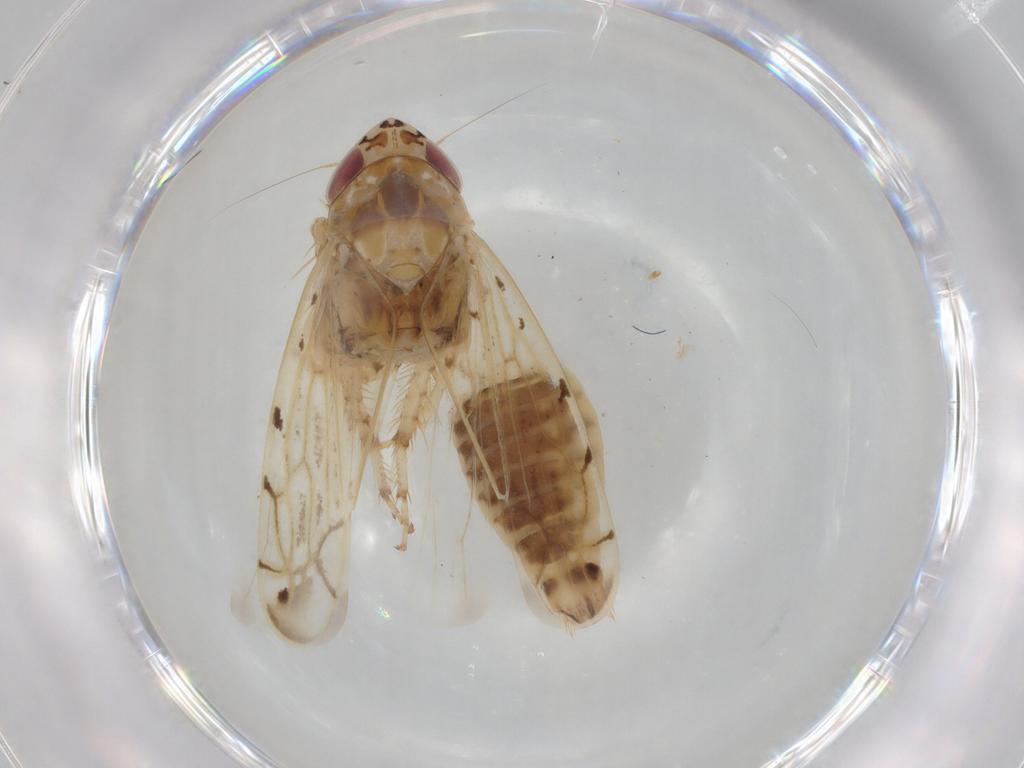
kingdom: Animalia
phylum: Arthropoda
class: Insecta
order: Hemiptera
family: Cicadellidae
